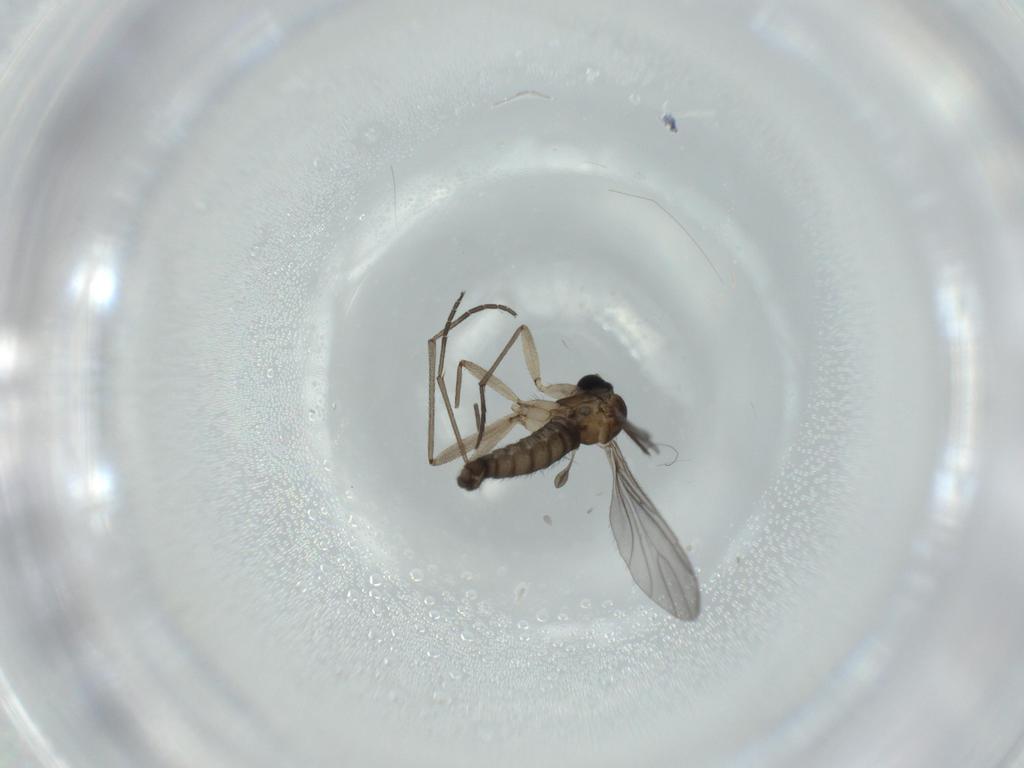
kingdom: Animalia
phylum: Arthropoda
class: Insecta
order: Diptera
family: Sciaridae
